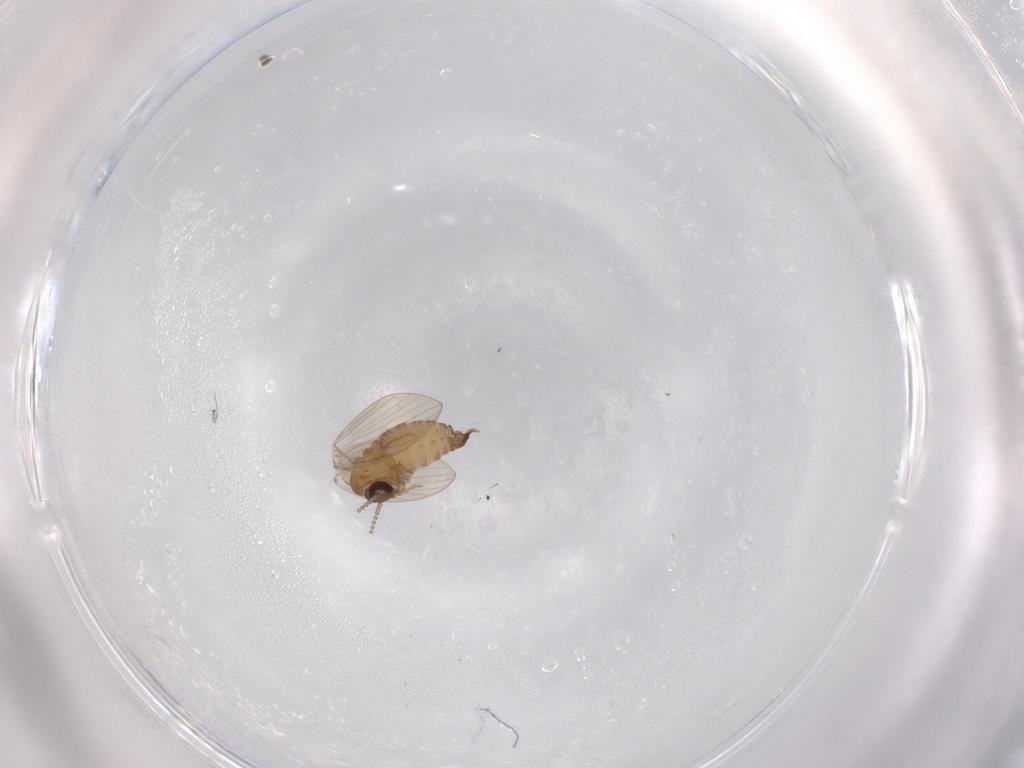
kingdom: Animalia
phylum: Arthropoda
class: Insecta
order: Diptera
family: Psychodidae
